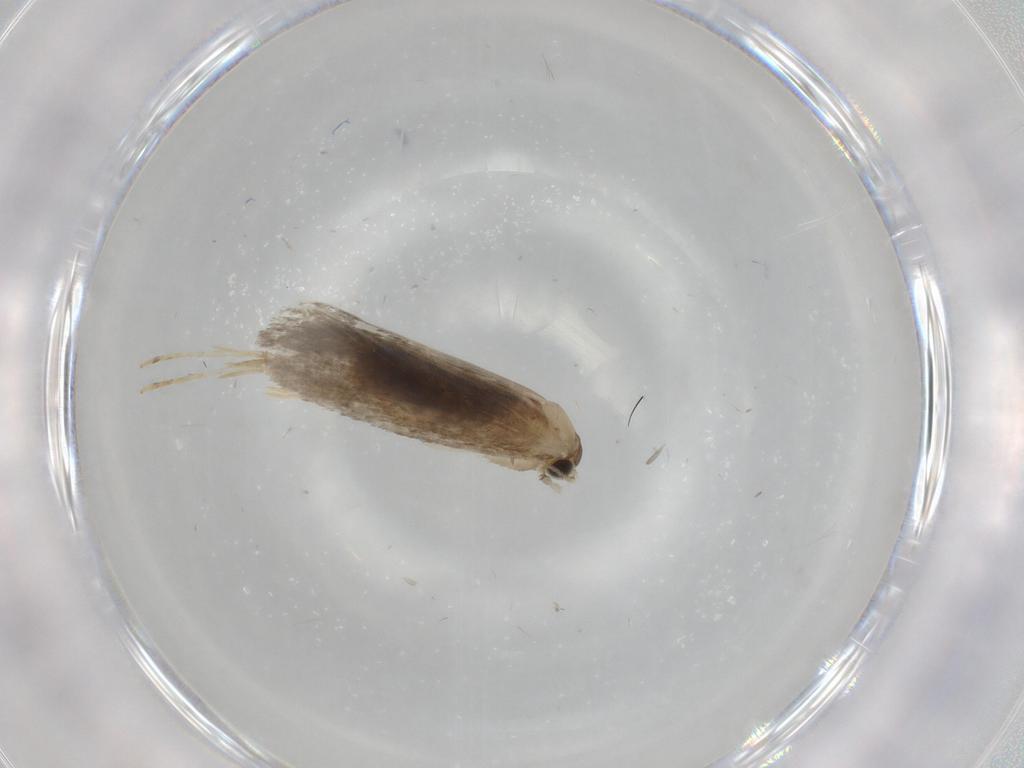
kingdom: Animalia
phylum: Arthropoda
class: Insecta
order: Lepidoptera
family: Tineidae
